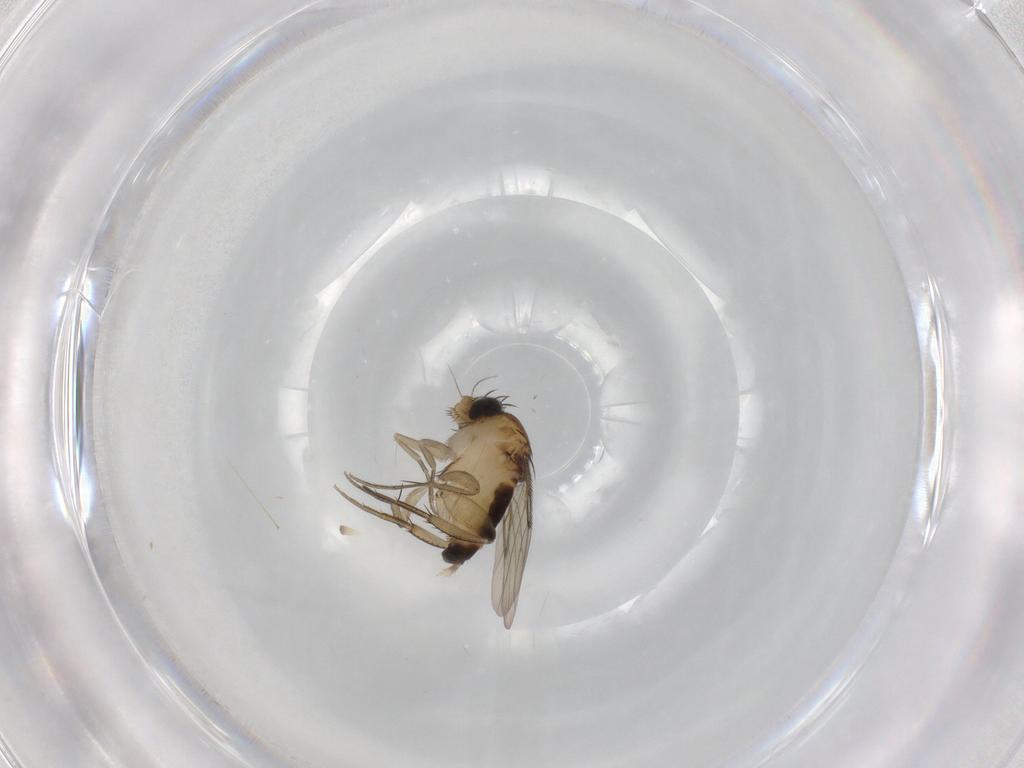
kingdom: Animalia
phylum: Arthropoda
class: Insecta
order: Diptera
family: Phoridae
